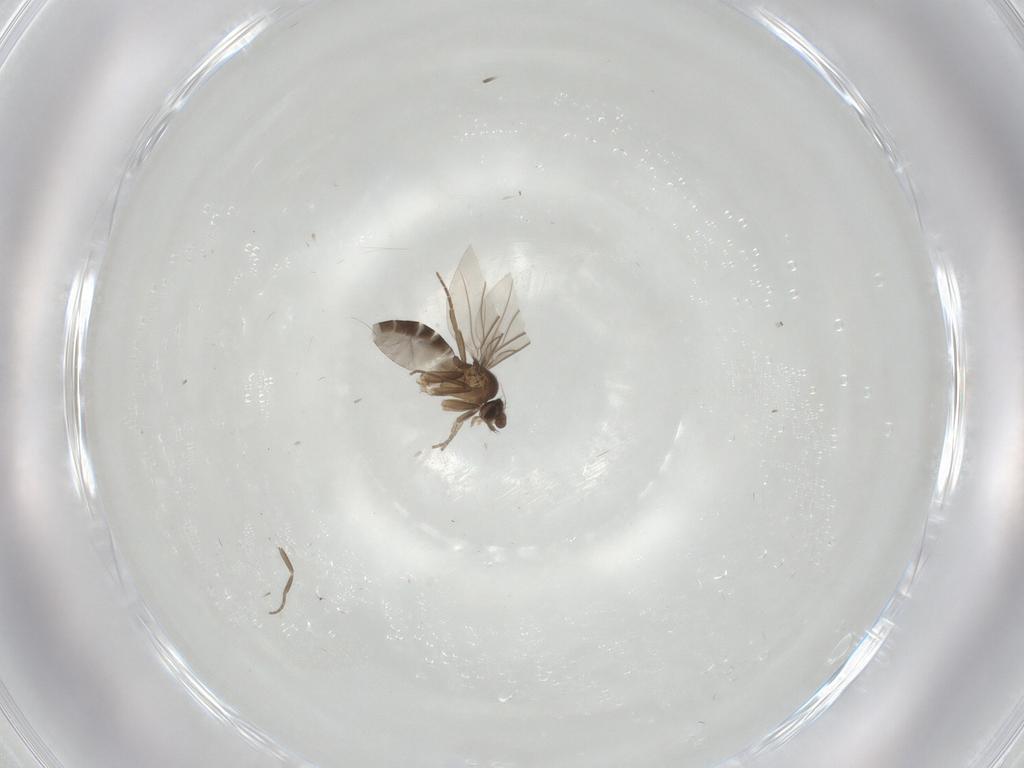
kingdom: Animalia
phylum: Arthropoda
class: Insecta
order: Diptera
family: Phoridae
